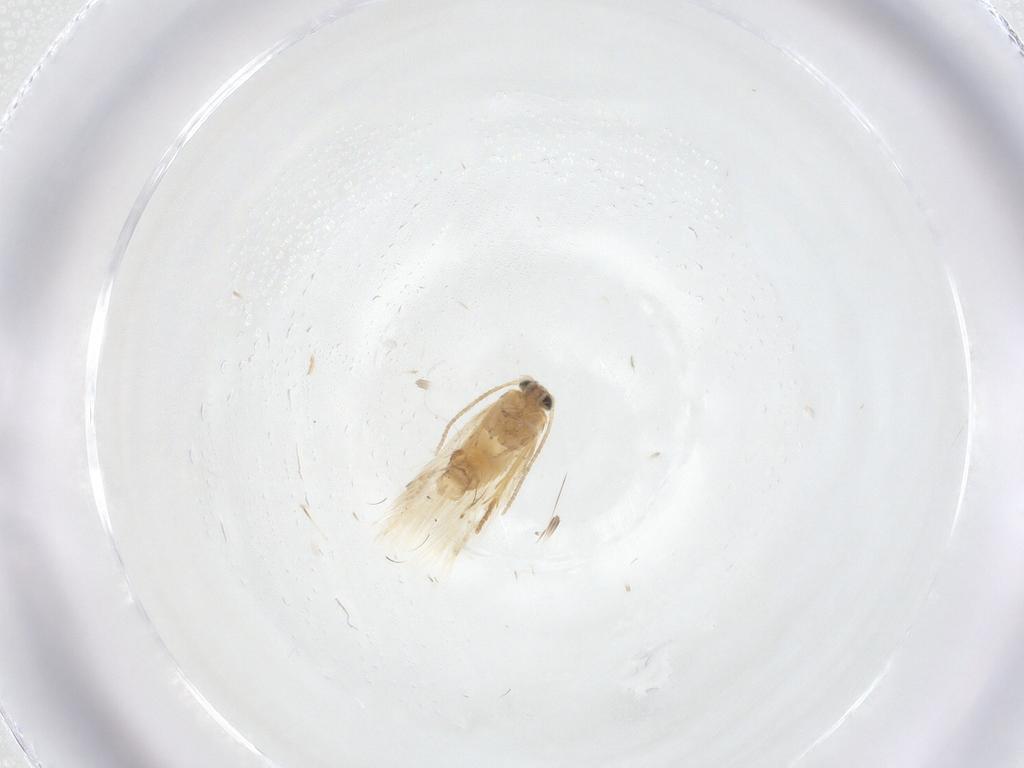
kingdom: Animalia
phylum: Arthropoda
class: Insecta
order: Lepidoptera
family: Nepticulidae
